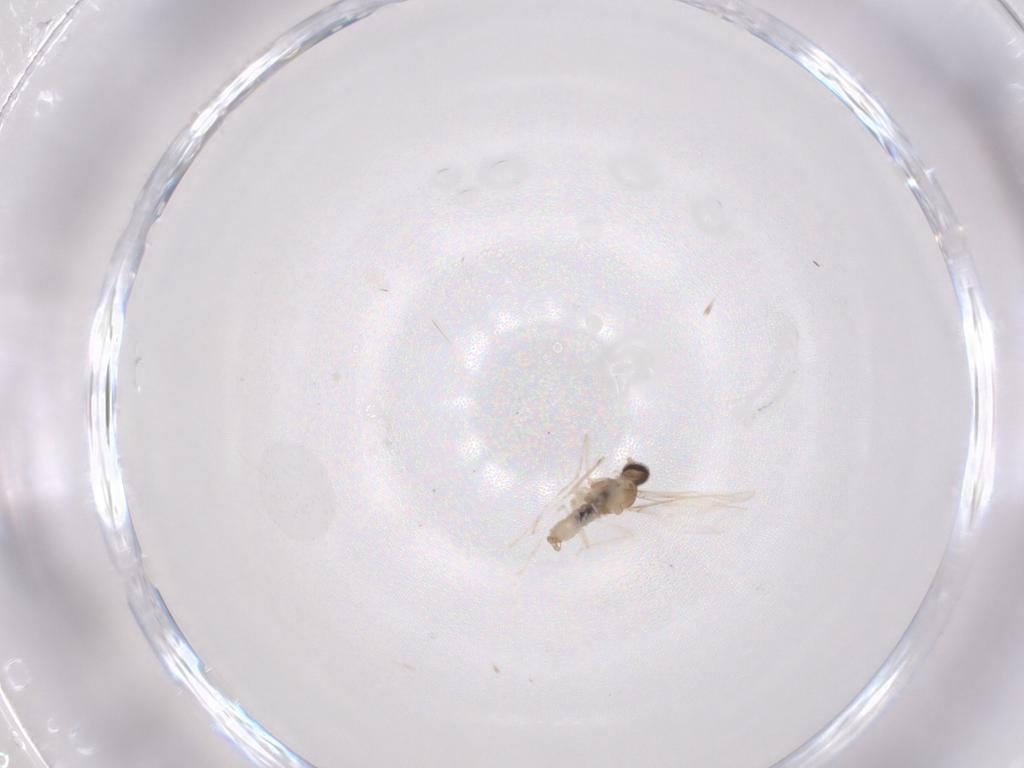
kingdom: Animalia
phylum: Arthropoda
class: Insecta
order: Diptera
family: Cecidomyiidae
